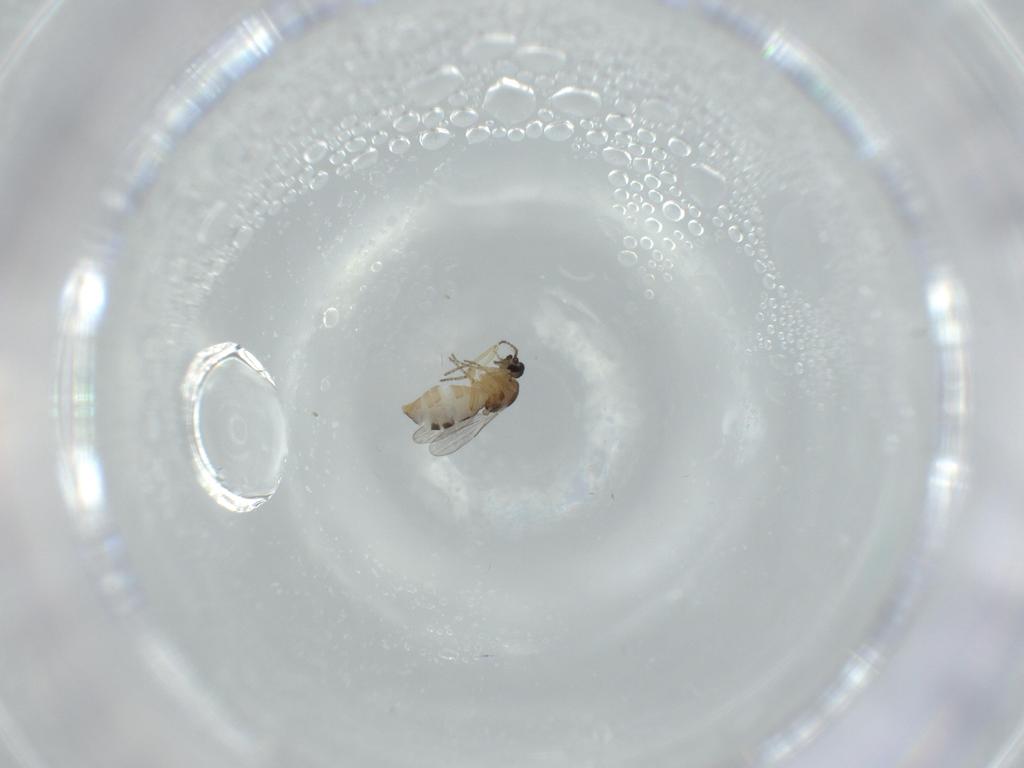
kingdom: Animalia
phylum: Arthropoda
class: Insecta
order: Diptera
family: Ceratopogonidae
